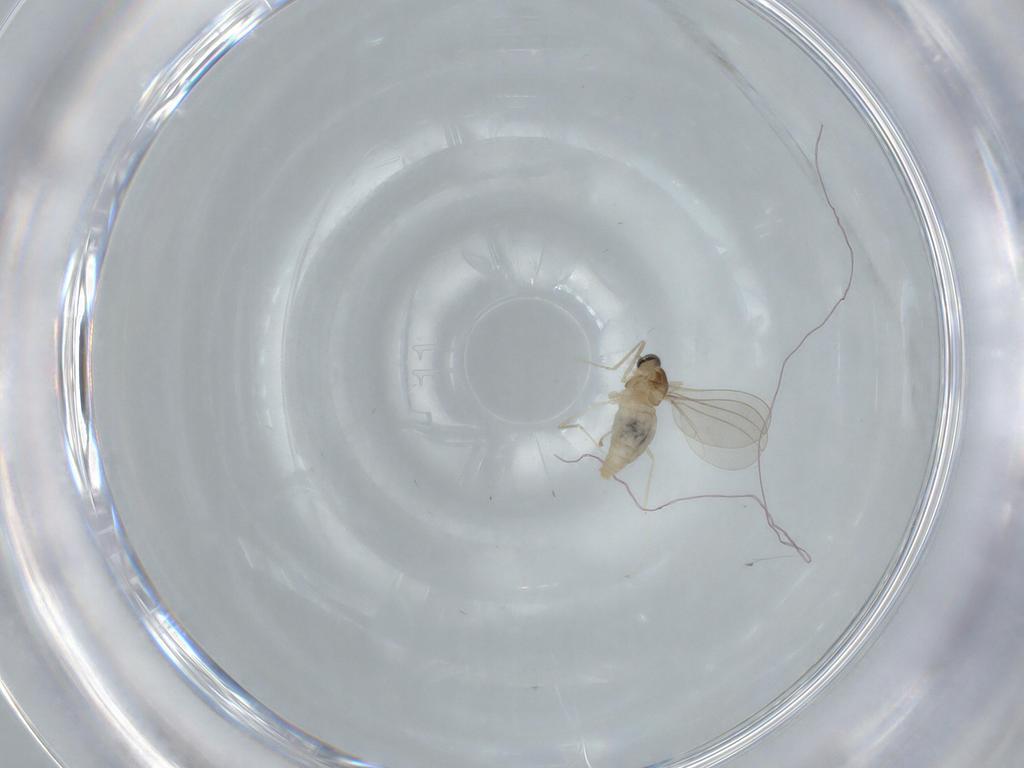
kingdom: Animalia
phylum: Arthropoda
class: Insecta
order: Diptera
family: Cecidomyiidae
